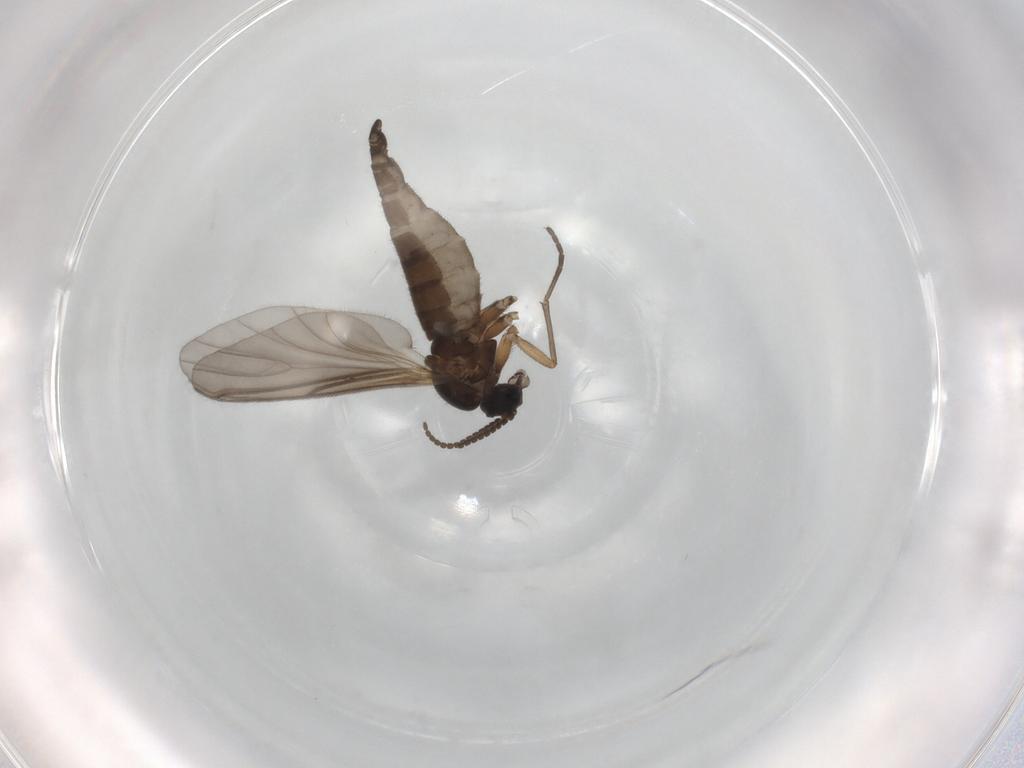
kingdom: Animalia
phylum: Arthropoda
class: Insecta
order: Diptera
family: Sciaridae
